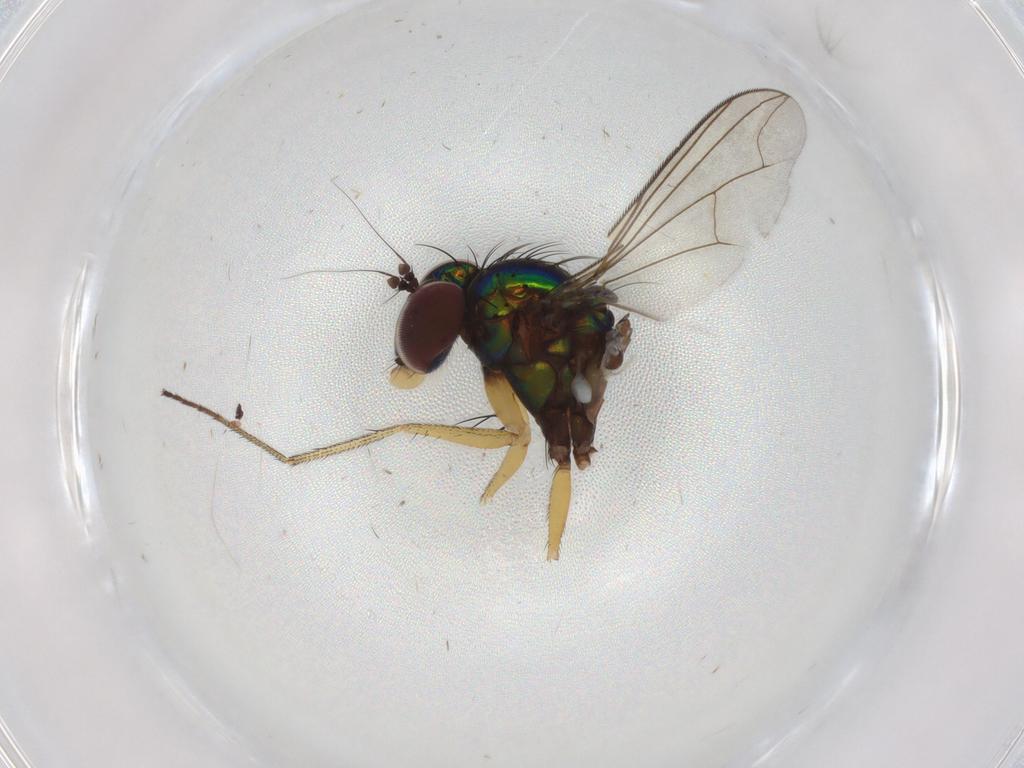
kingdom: Animalia
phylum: Arthropoda
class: Insecta
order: Diptera
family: Dolichopodidae
